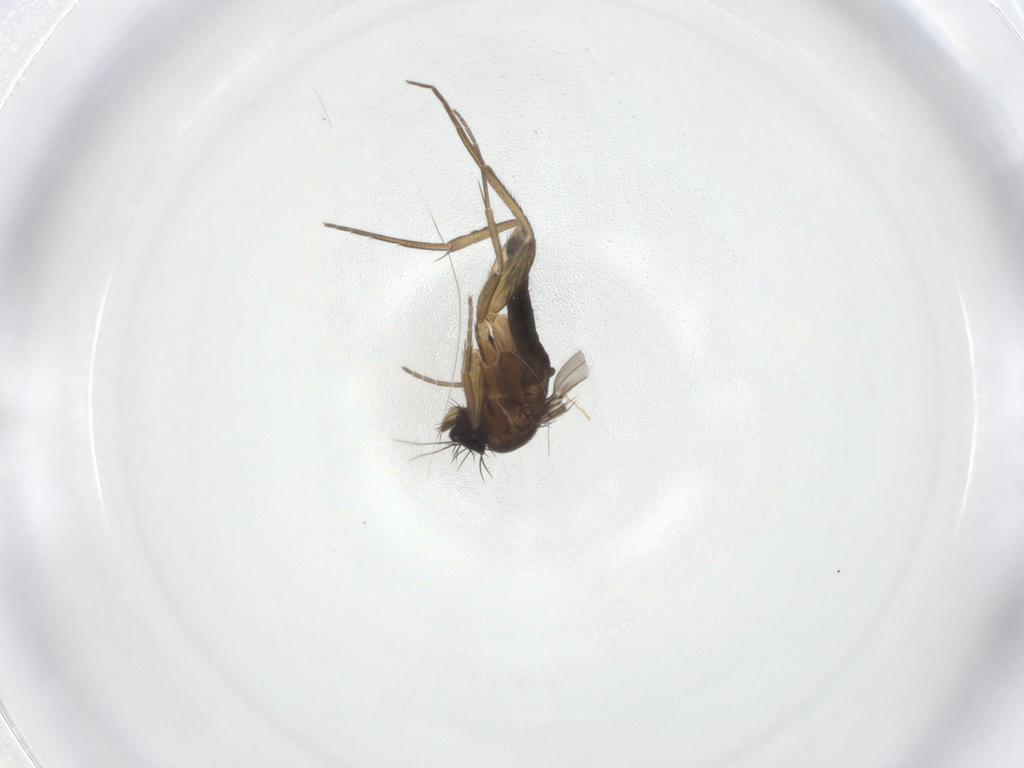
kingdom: Animalia
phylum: Arthropoda
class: Insecta
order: Diptera
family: Phoridae
